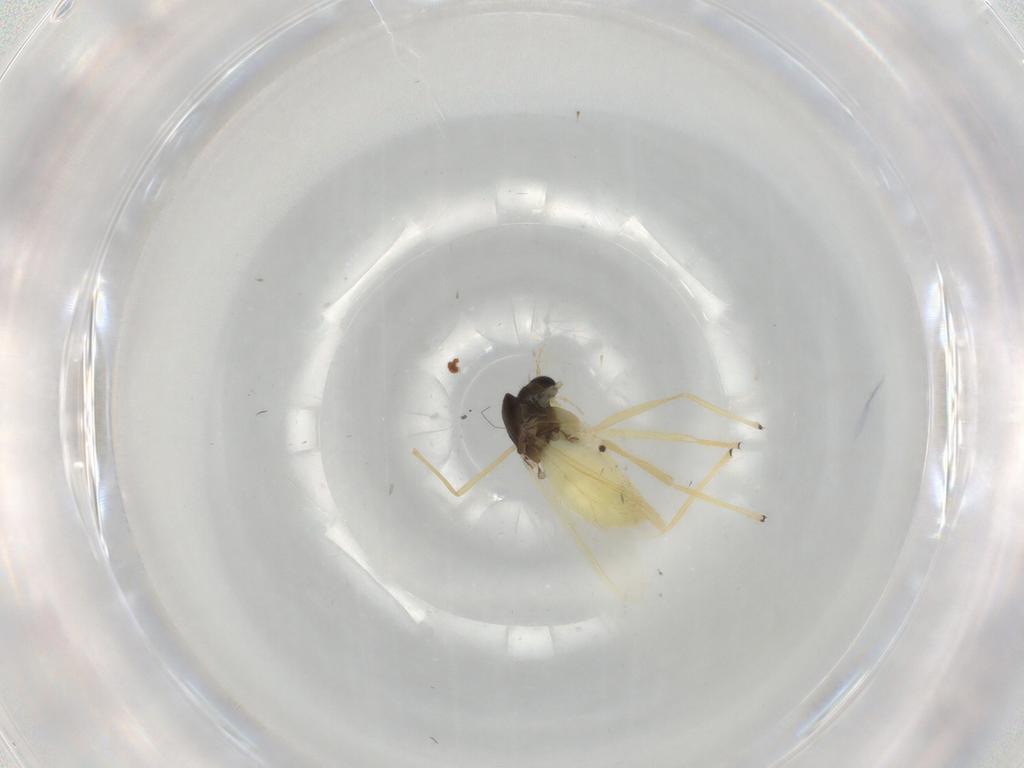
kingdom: Animalia
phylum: Arthropoda
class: Insecta
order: Diptera
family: Chironomidae
